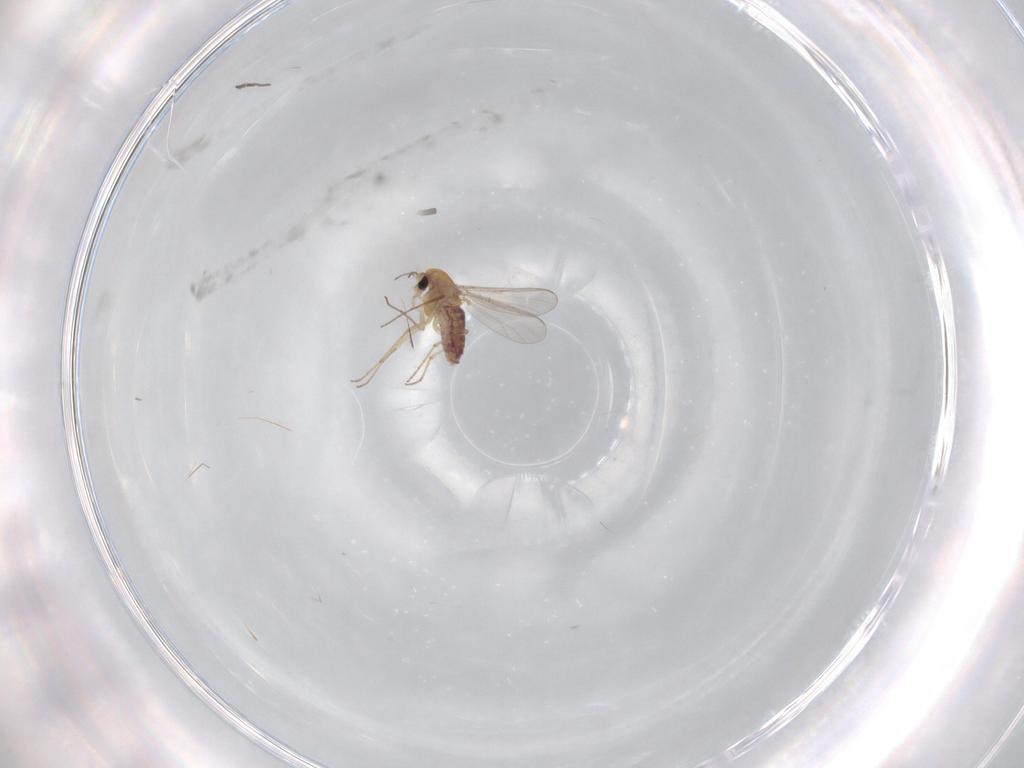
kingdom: Animalia
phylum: Arthropoda
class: Insecta
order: Diptera
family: Chironomidae
